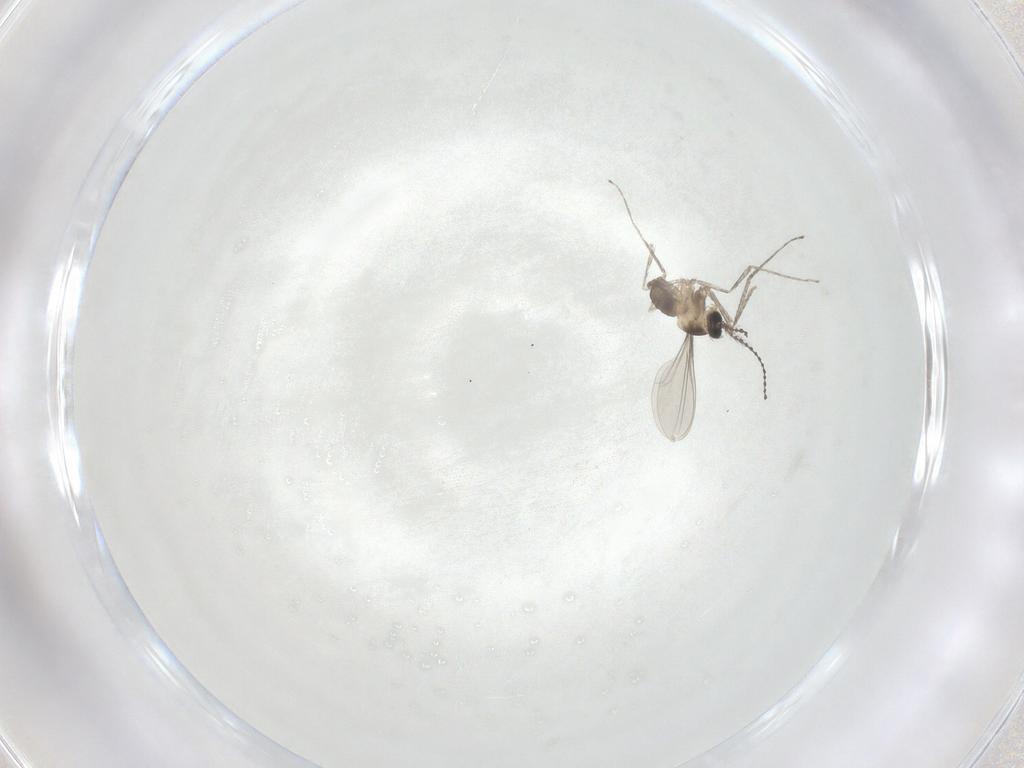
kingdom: Animalia
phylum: Arthropoda
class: Insecta
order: Diptera
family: Cecidomyiidae
